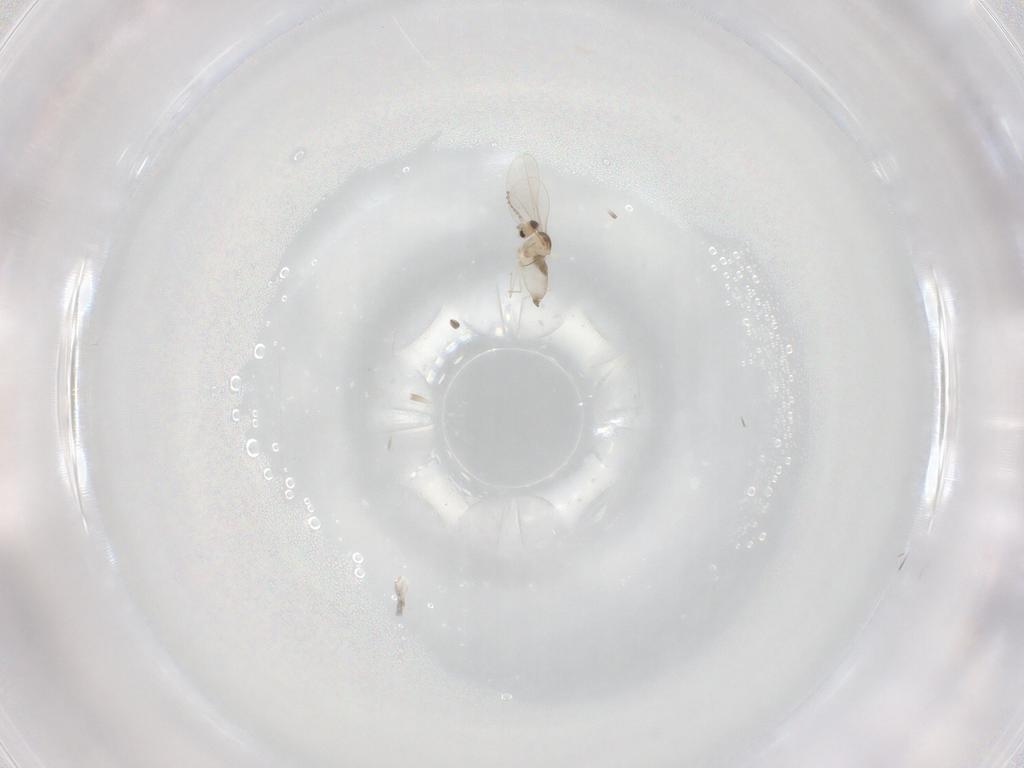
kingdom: Animalia
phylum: Arthropoda
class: Insecta
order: Diptera
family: Cecidomyiidae
